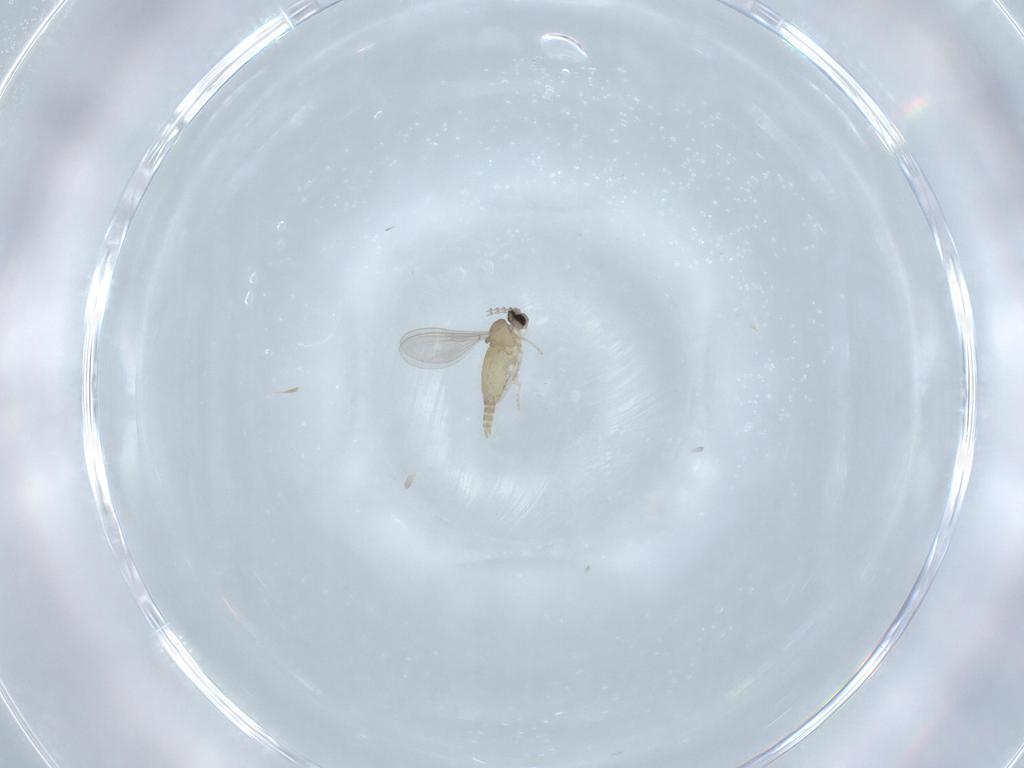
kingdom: Animalia
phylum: Arthropoda
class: Insecta
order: Diptera
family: Cecidomyiidae
